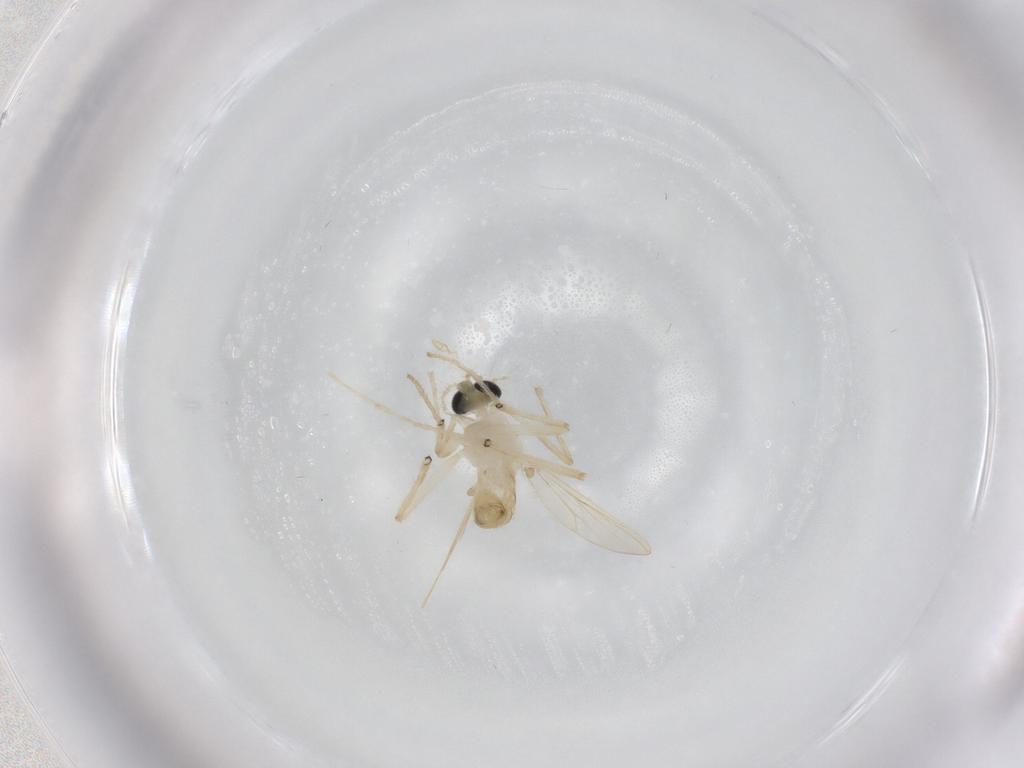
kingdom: Animalia
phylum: Arthropoda
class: Insecta
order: Diptera
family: Chironomidae
